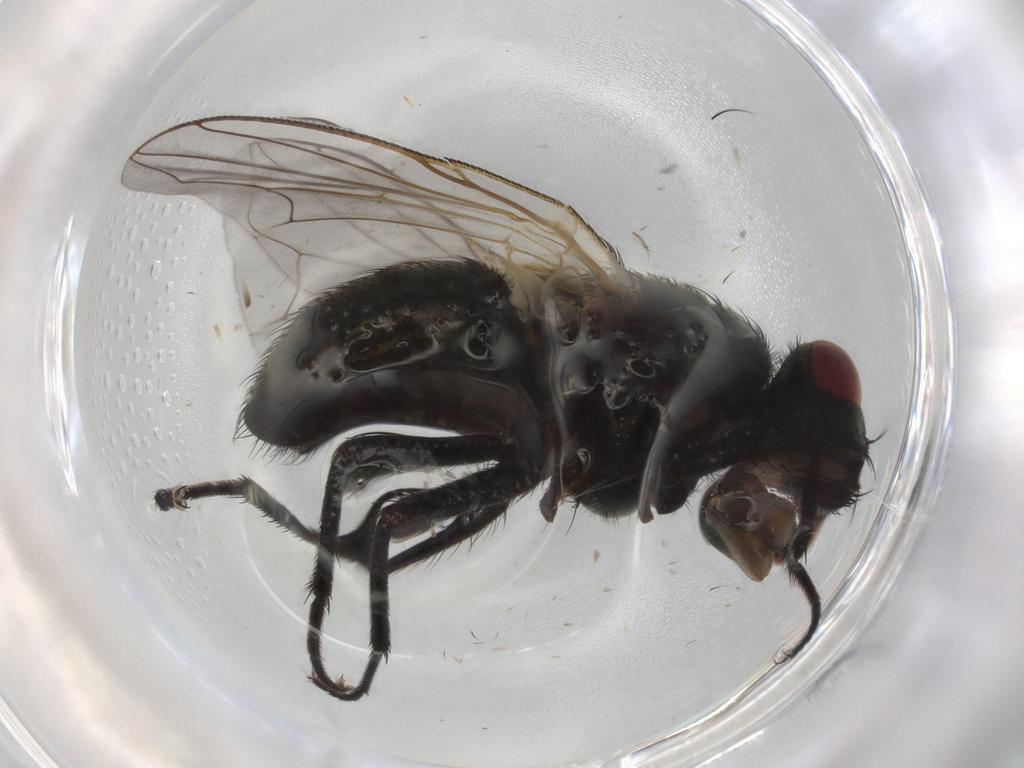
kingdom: Animalia
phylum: Arthropoda
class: Insecta
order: Diptera
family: Muscidae
